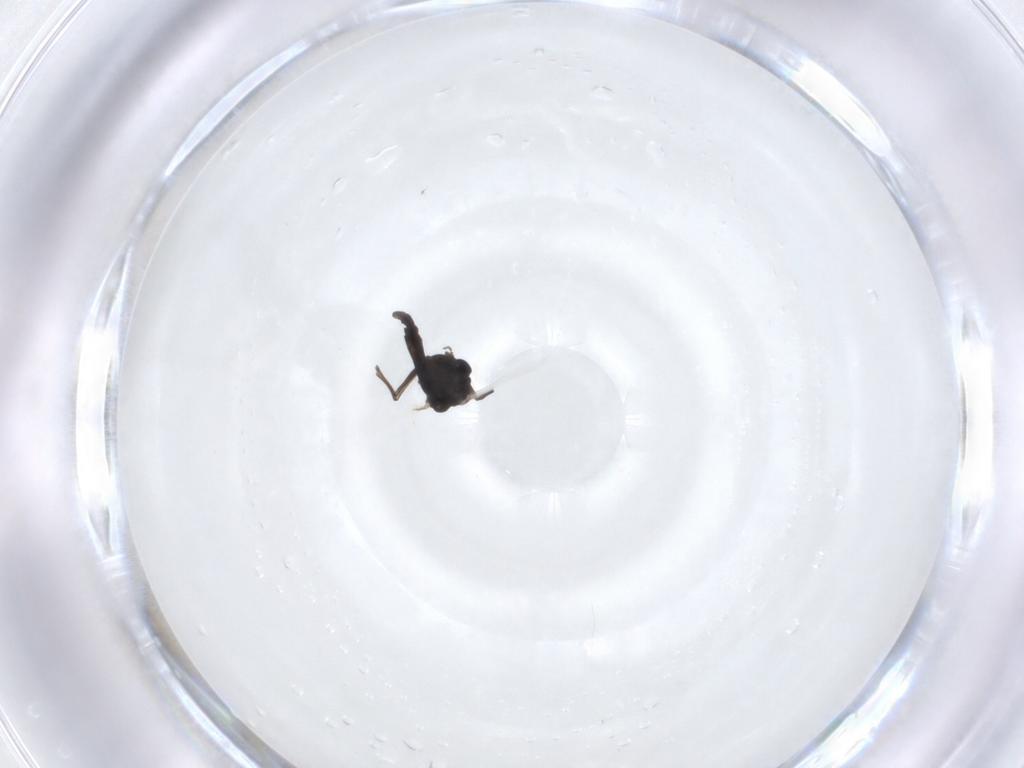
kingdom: Animalia
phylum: Arthropoda
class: Insecta
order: Diptera
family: Chironomidae
